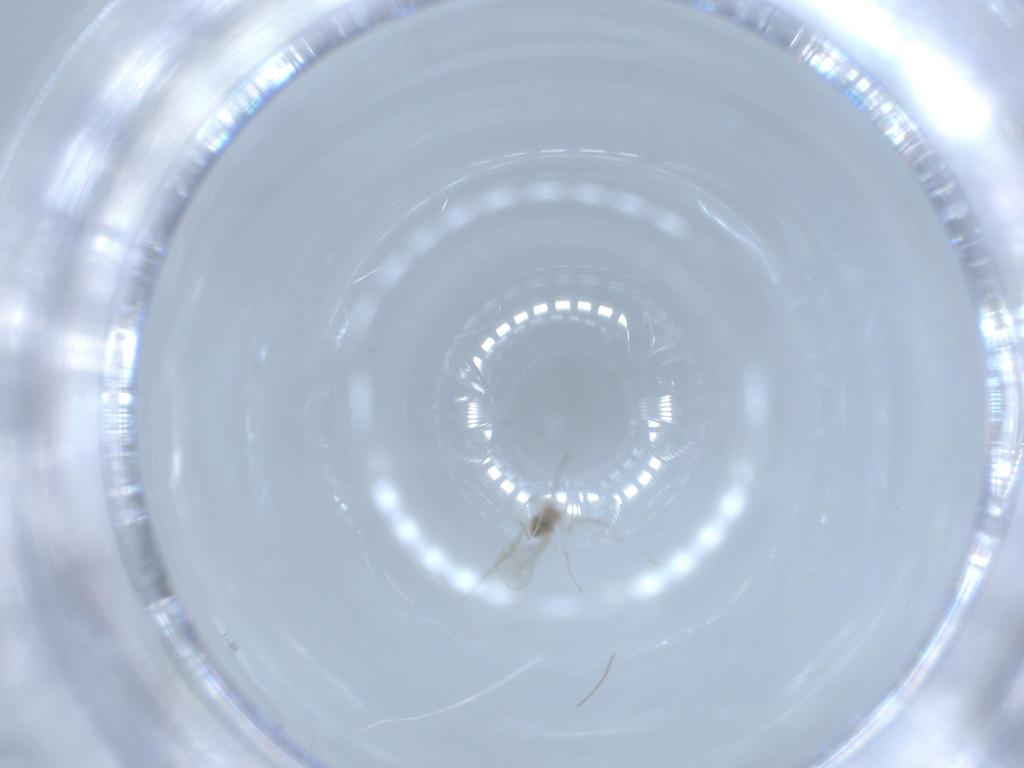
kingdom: Animalia
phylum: Arthropoda
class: Insecta
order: Diptera
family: Cecidomyiidae
